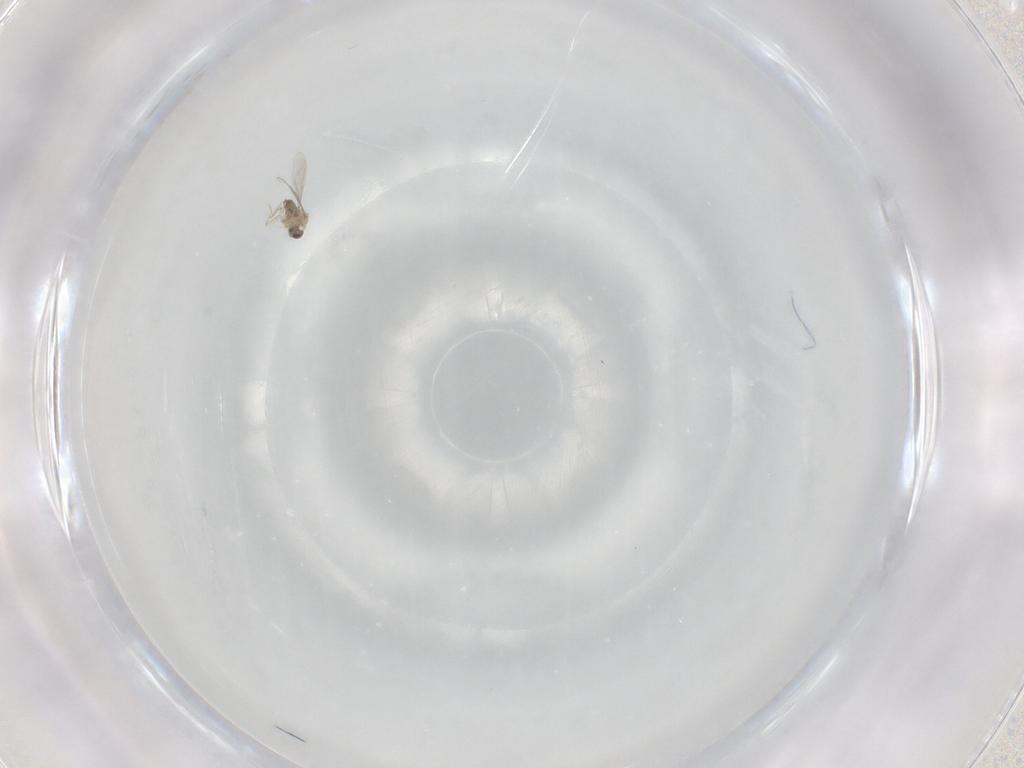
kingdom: Animalia
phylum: Arthropoda
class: Insecta
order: Diptera
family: Cecidomyiidae
